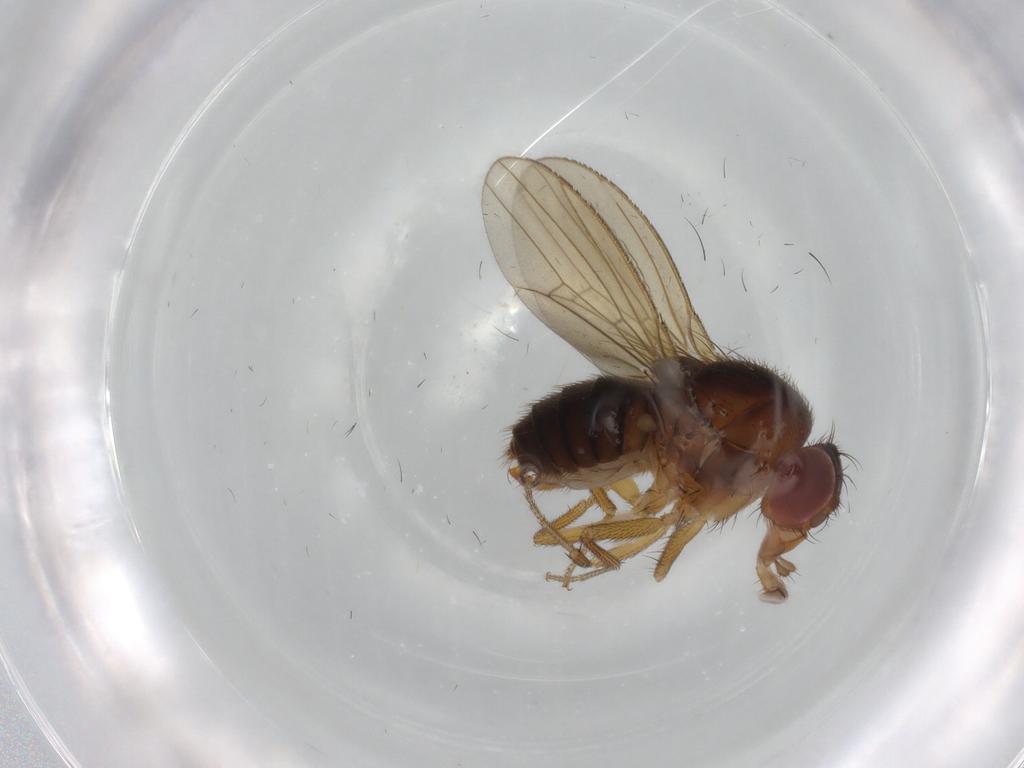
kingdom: Animalia
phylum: Arthropoda
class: Insecta
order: Diptera
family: Drosophilidae
